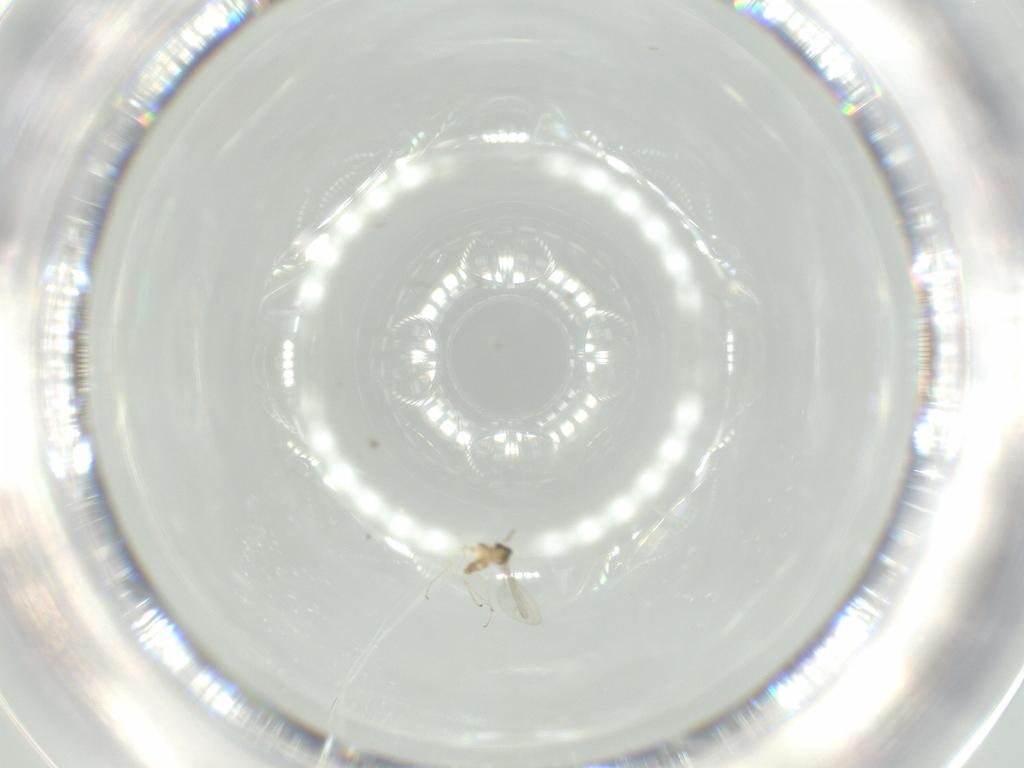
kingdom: Animalia
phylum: Arthropoda
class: Insecta
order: Diptera
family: Cecidomyiidae
